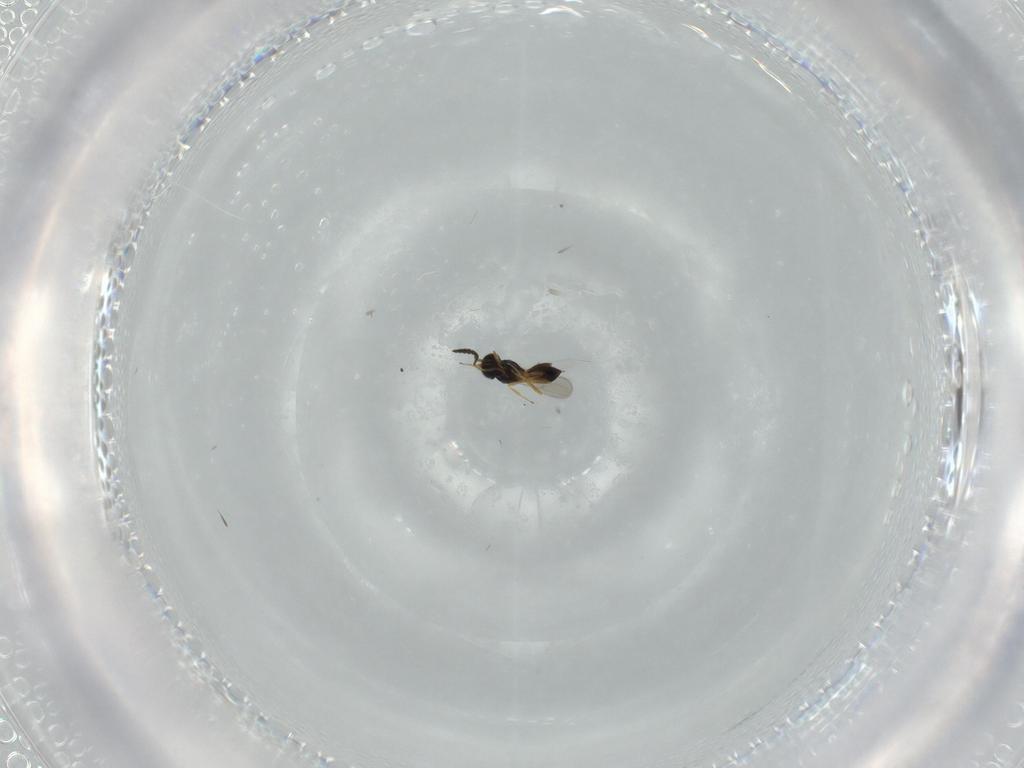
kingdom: Animalia
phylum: Arthropoda
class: Insecta
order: Hymenoptera
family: Scelionidae
